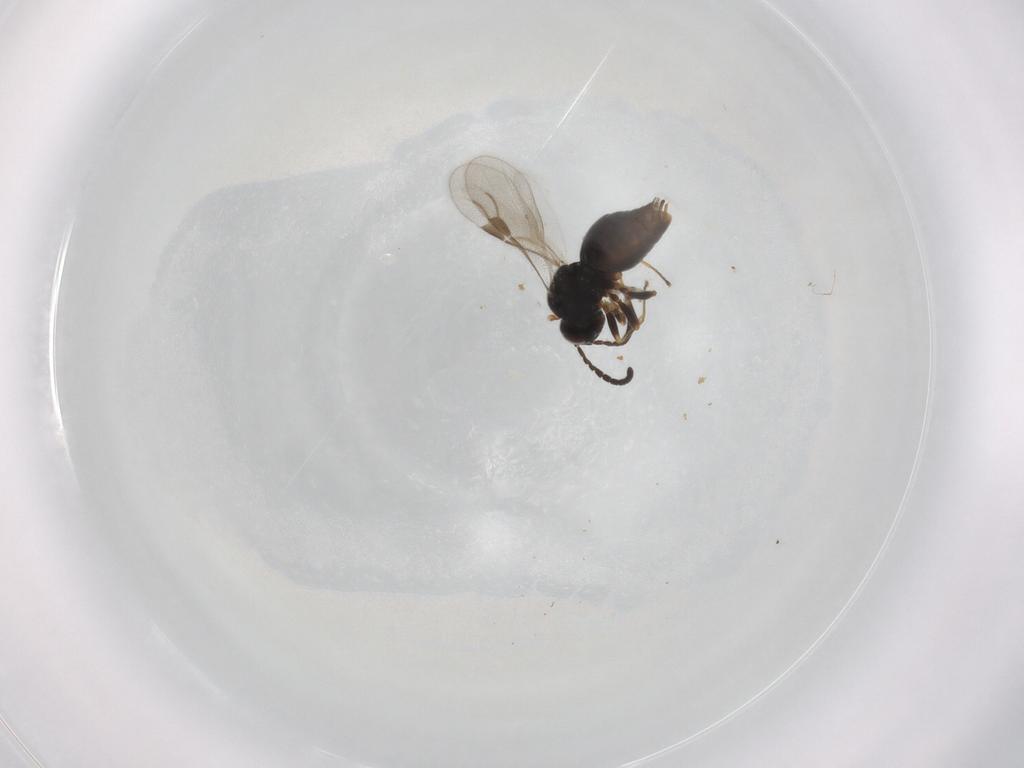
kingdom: Animalia
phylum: Arthropoda
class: Insecta
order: Hymenoptera
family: Megaspilidae
